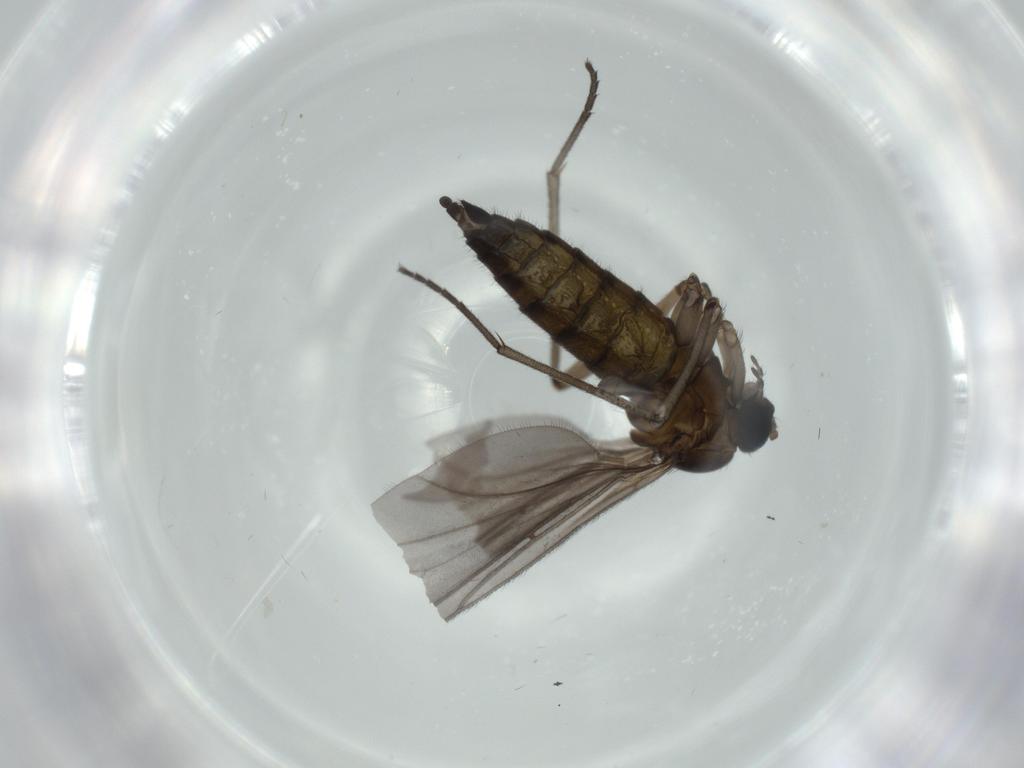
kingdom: Animalia
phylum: Arthropoda
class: Insecta
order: Diptera
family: Sciaridae
